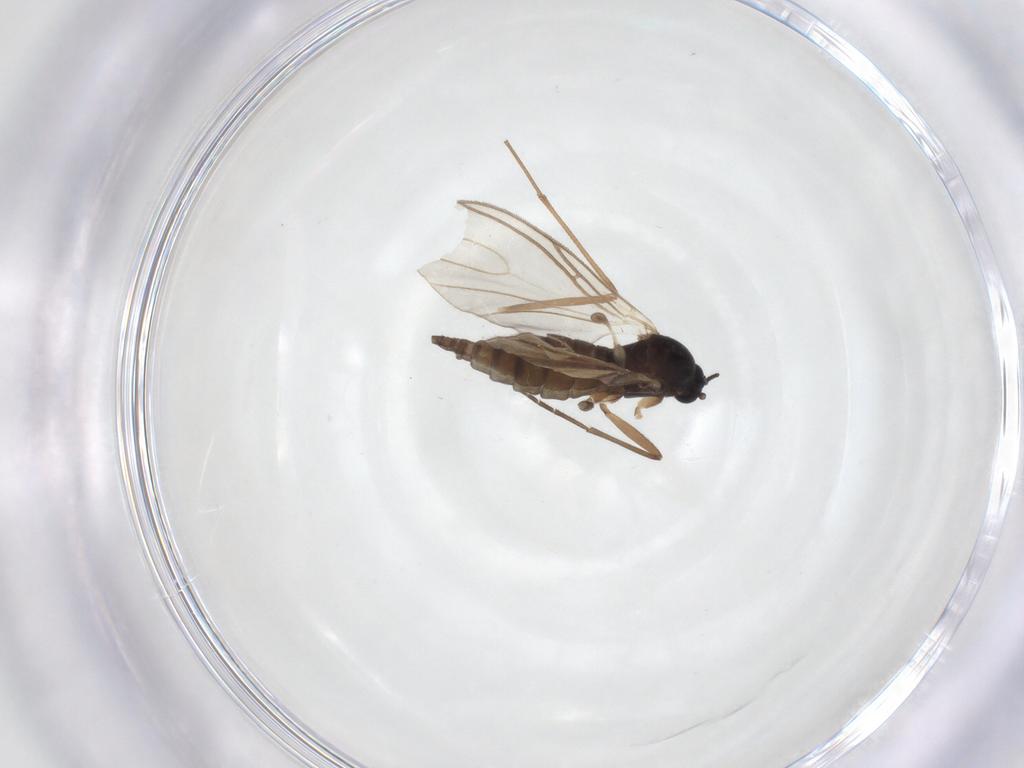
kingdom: Animalia
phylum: Arthropoda
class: Insecta
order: Diptera
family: Sciaridae
